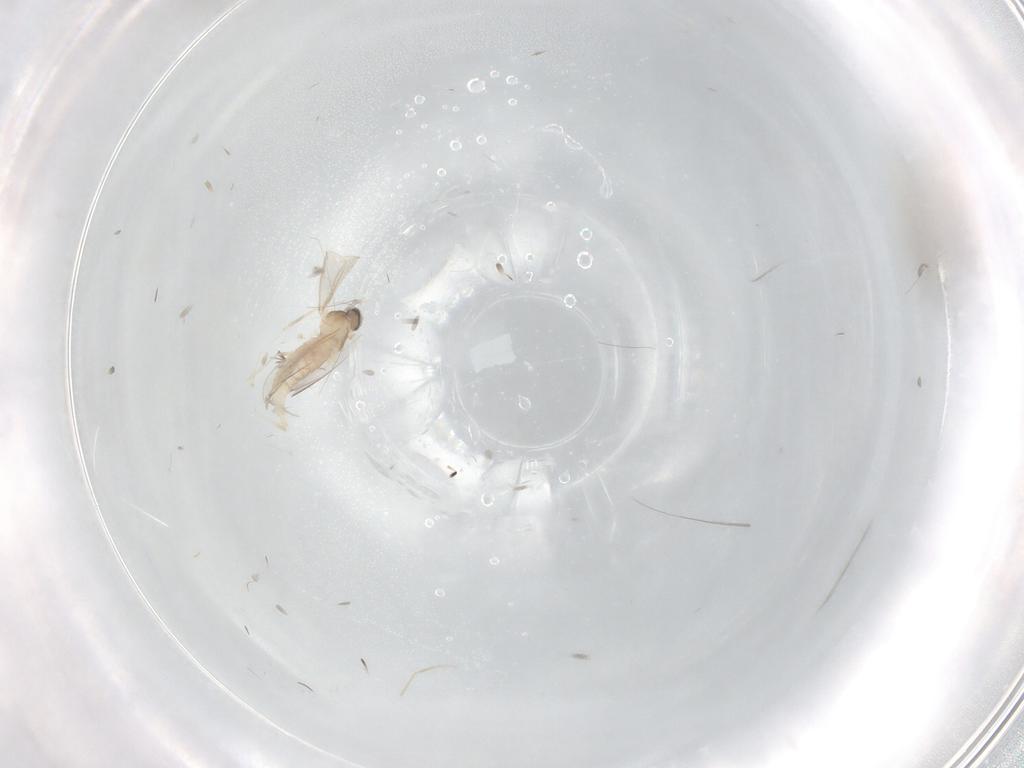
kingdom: Animalia
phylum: Arthropoda
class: Insecta
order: Diptera
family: Cecidomyiidae
